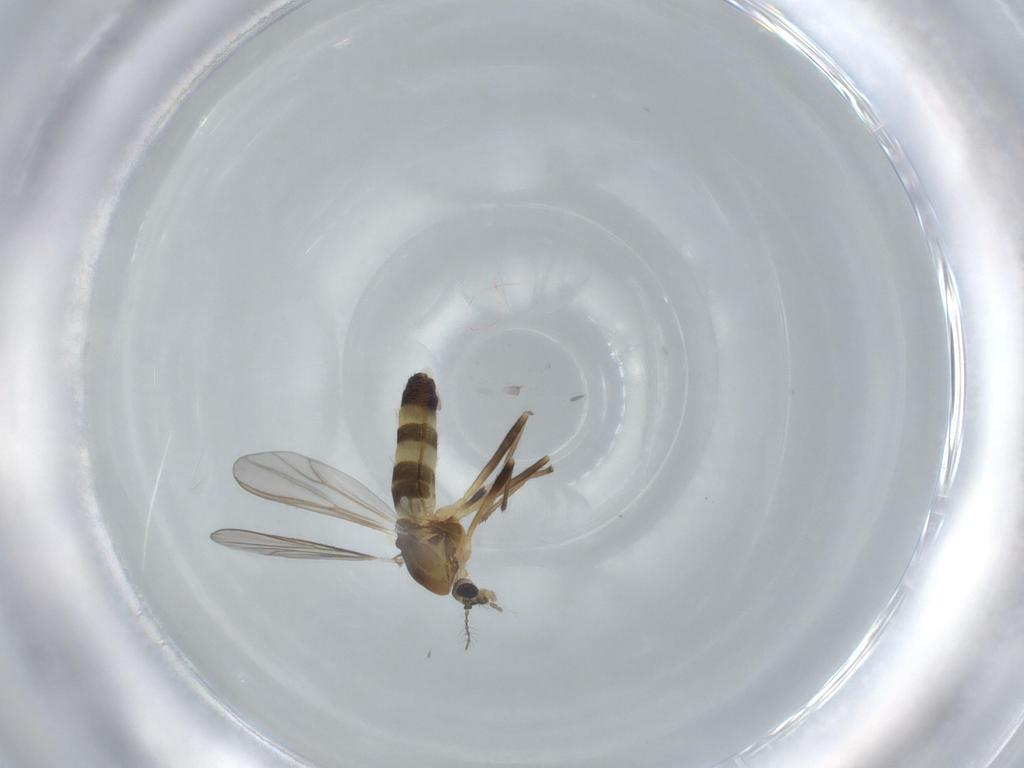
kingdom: Animalia
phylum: Arthropoda
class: Insecta
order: Diptera
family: Chironomidae
